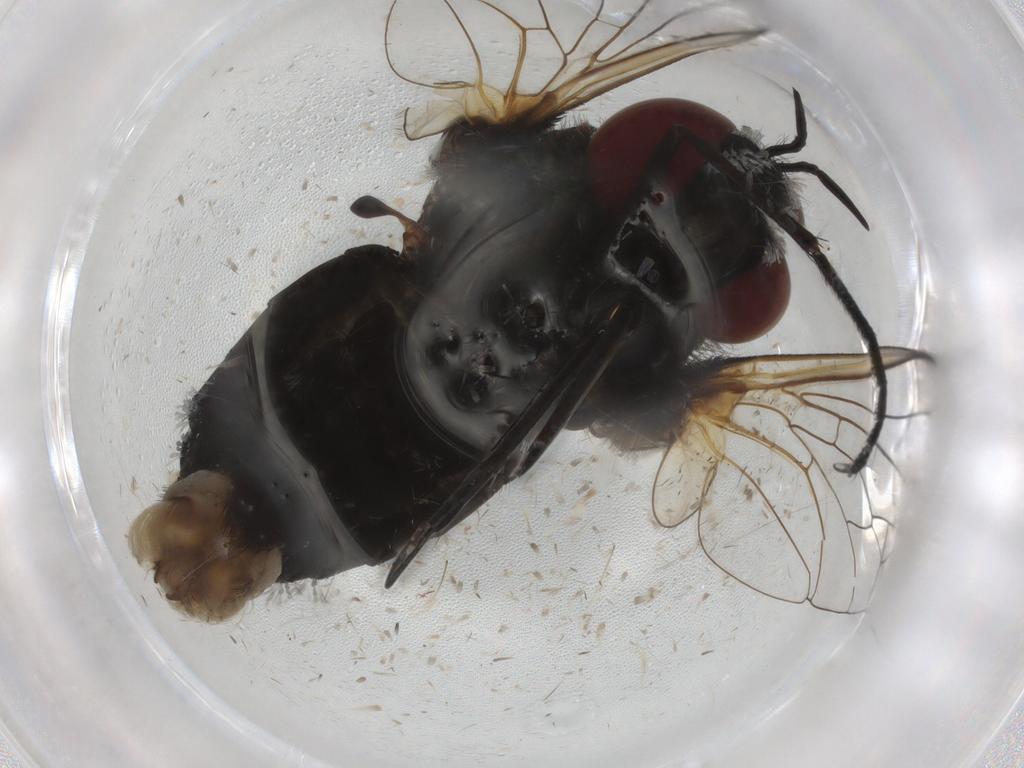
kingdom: Animalia
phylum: Arthropoda
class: Insecta
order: Diptera
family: Bombyliidae
